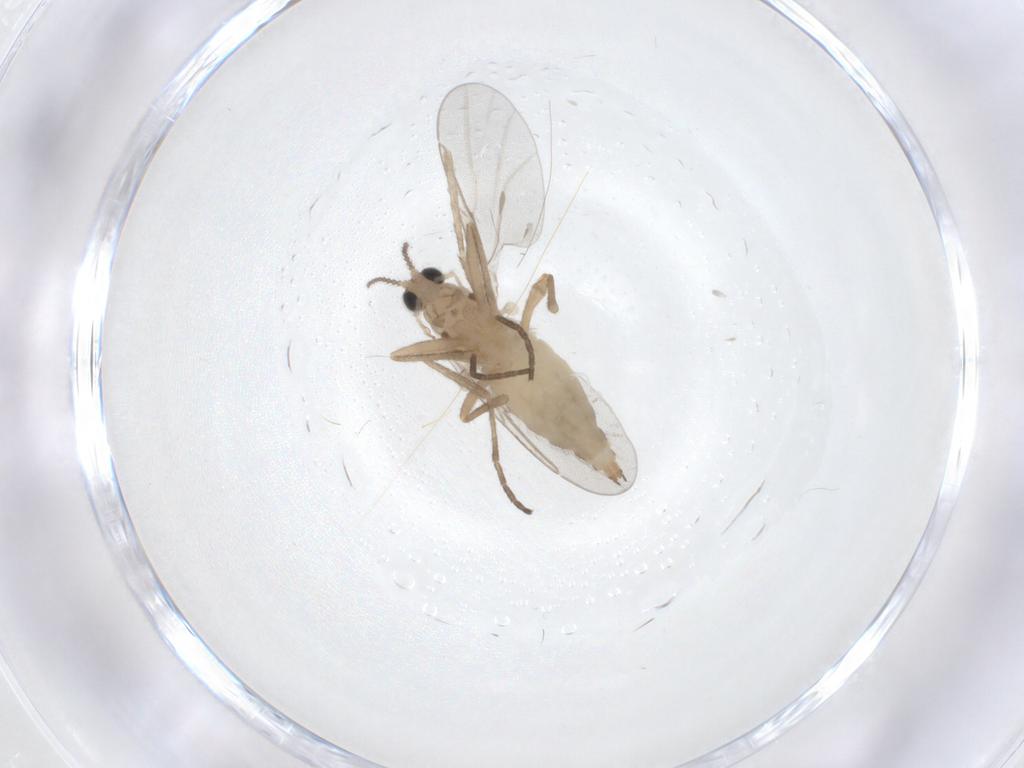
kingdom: Animalia
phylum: Arthropoda
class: Insecta
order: Diptera
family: Cecidomyiidae
